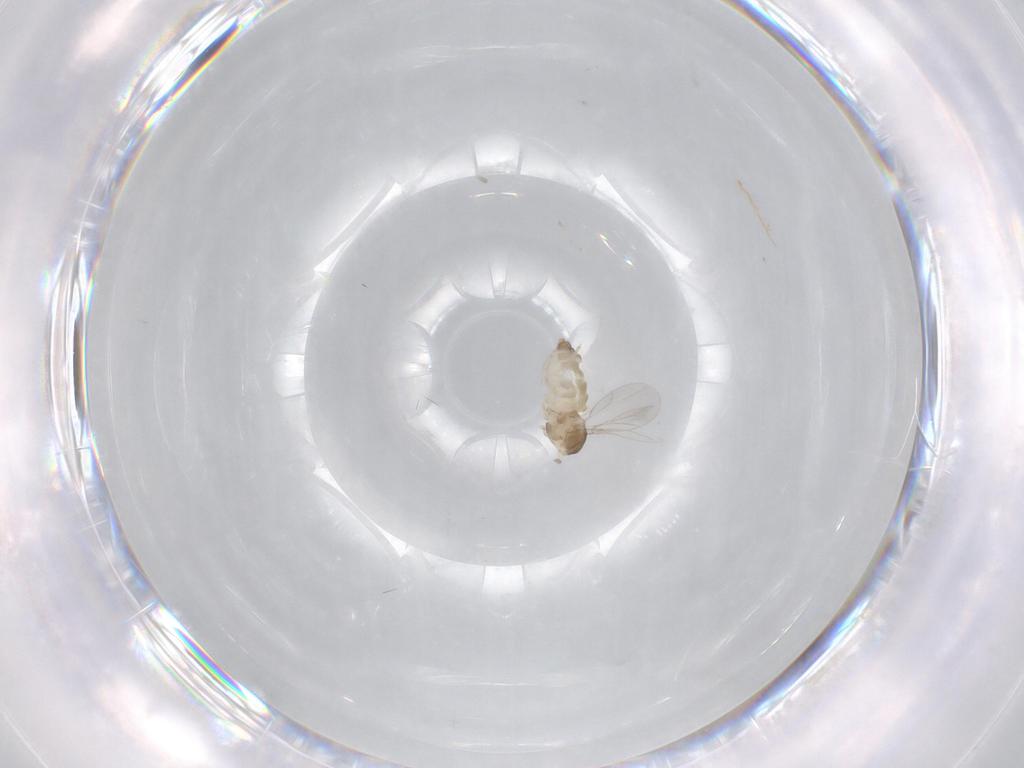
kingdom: Animalia
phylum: Arthropoda
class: Insecta
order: Diptera
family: Cecidomyiidae
